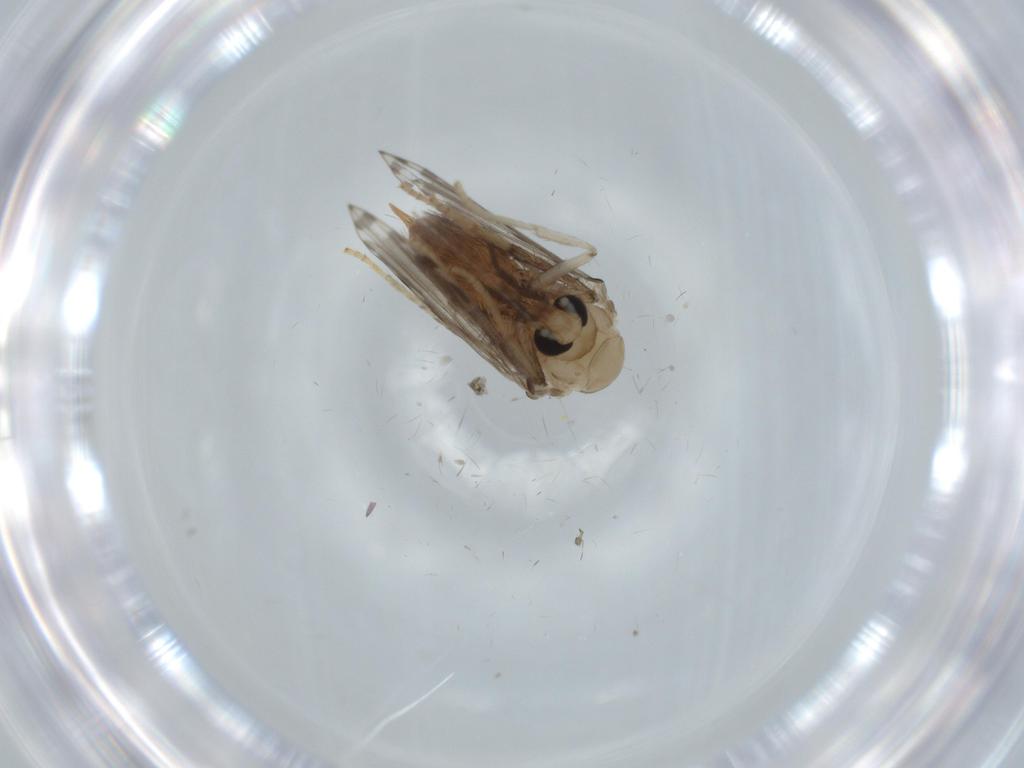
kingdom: Animalia
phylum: Arthropoda
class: Insecta
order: Diptera
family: Cecidomyiidae
